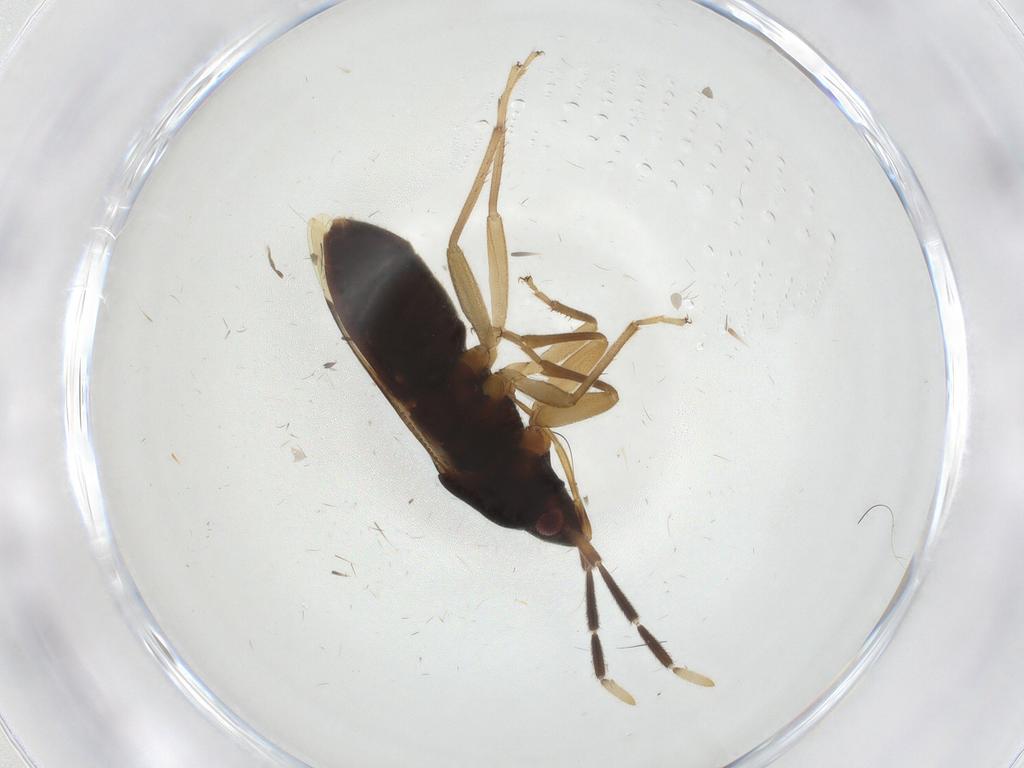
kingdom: Animalia
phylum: Arthropoda
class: Insecta
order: Hemiptera
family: Rhyparochromidae
